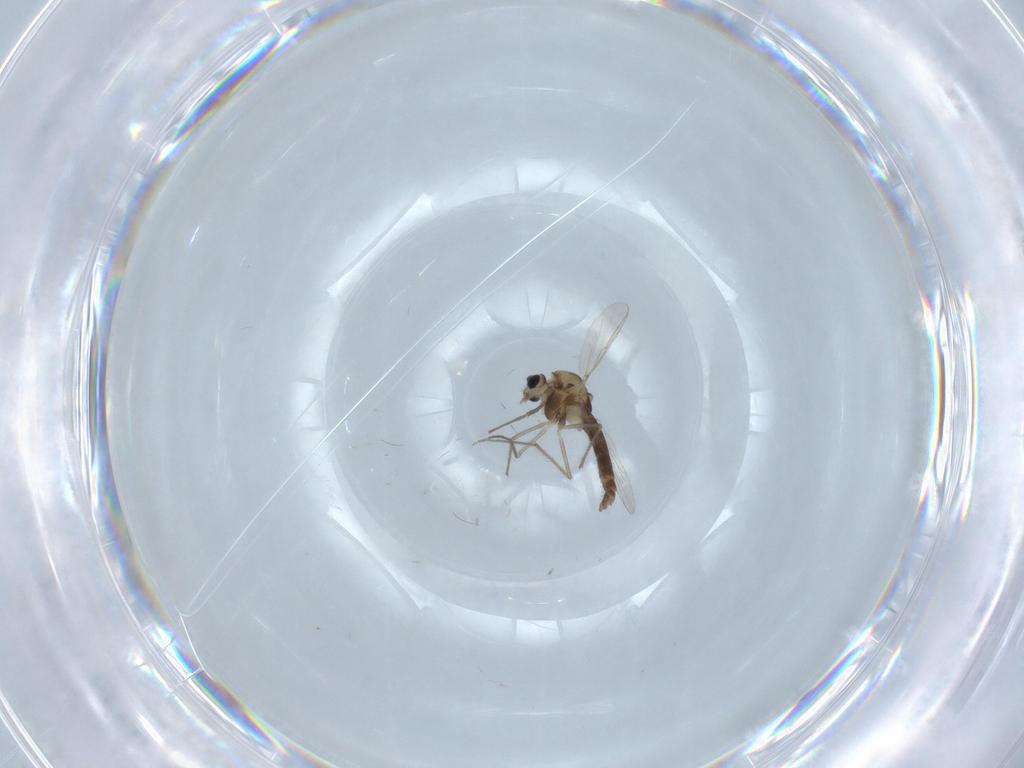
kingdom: Animalia
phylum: Arthropoda
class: Insecta
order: Diptera
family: Chironomidae
